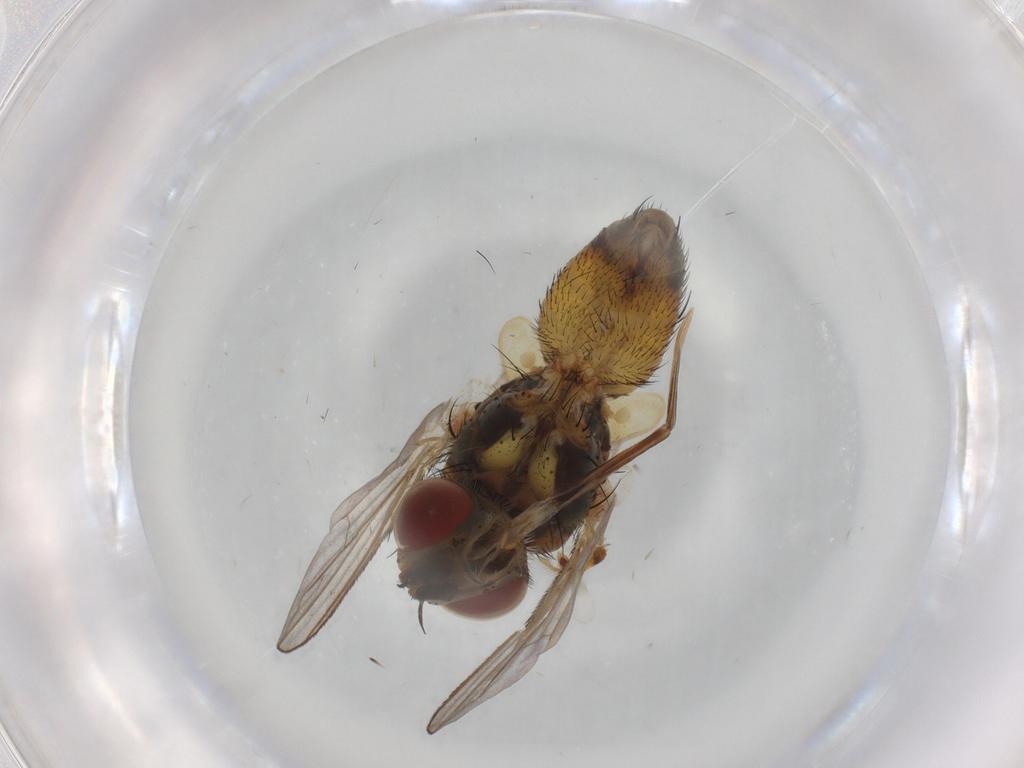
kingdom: Animalia
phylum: Arthropoda
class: Insecta
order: Diptera
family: Tachinidae
